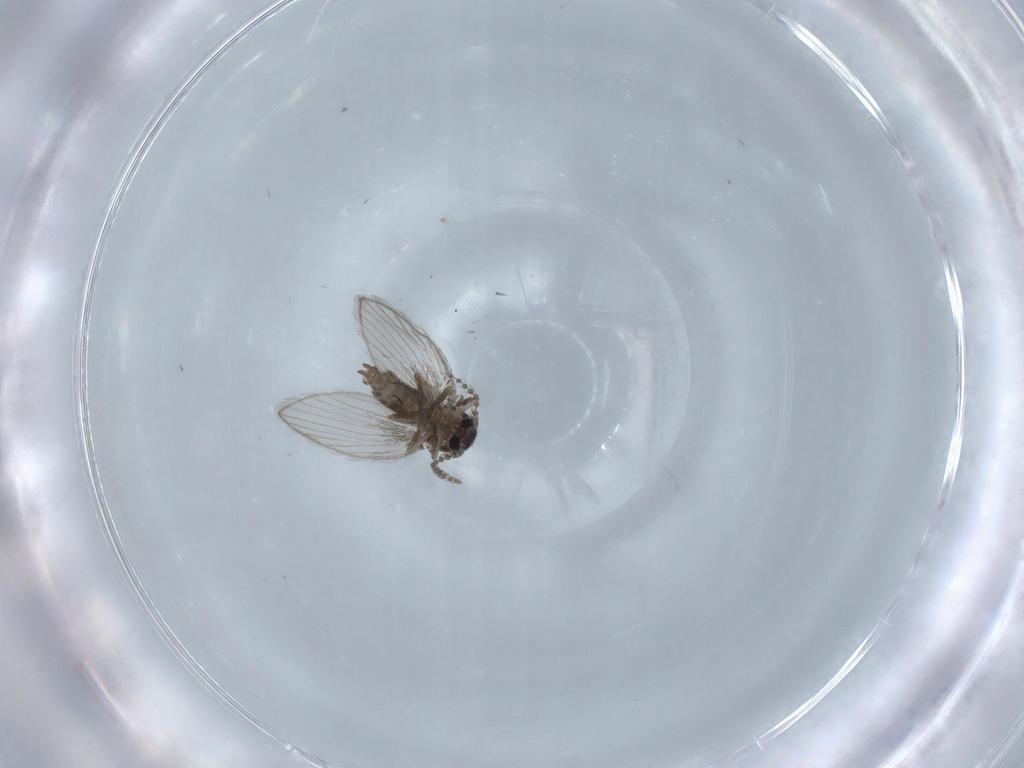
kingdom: Animalia
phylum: Arthropoda
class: Insecta
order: Diptera
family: Psychodidae
